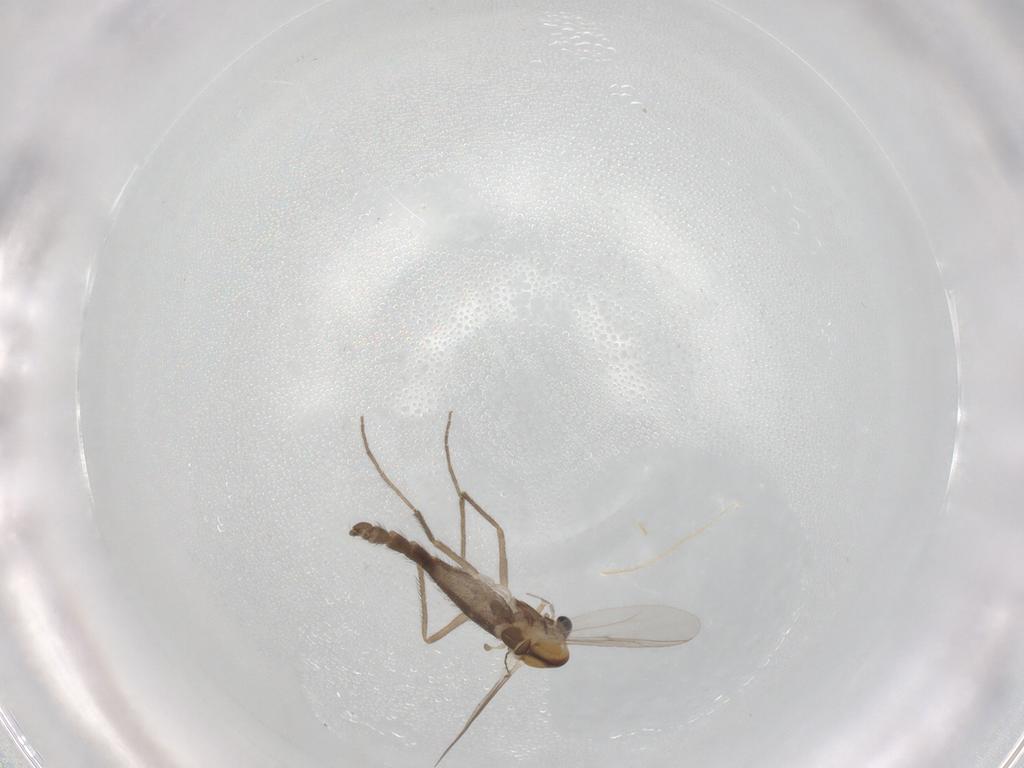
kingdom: Animalia
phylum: Arthropoda
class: Insecta
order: Diptera
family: Chironomidae
